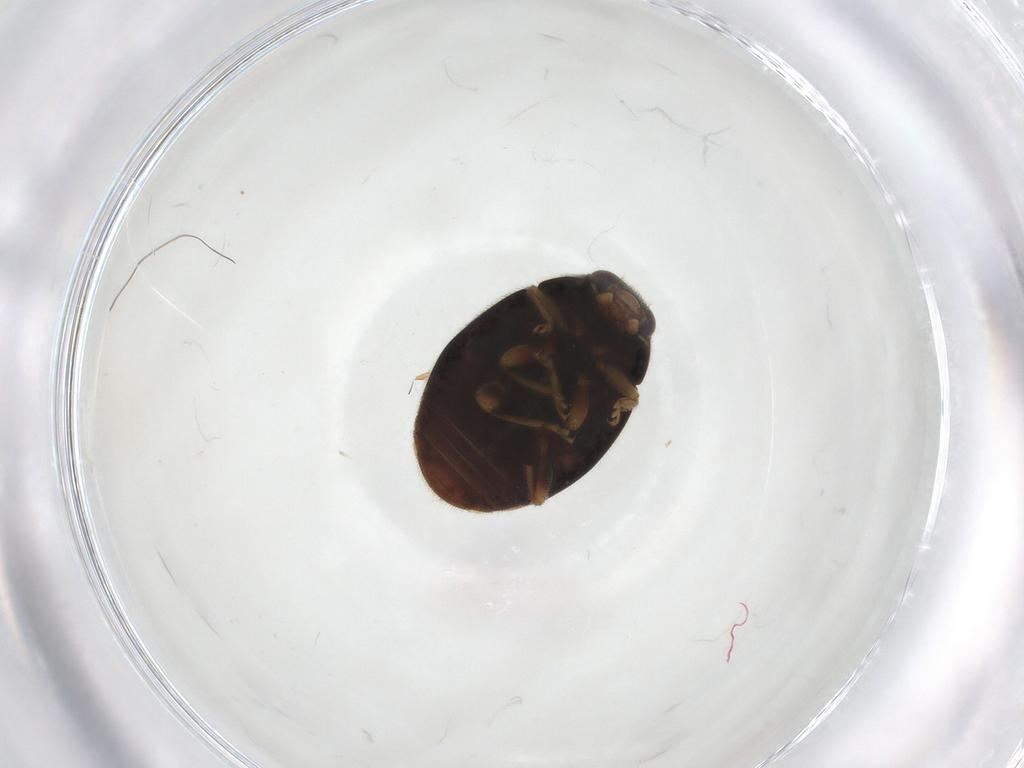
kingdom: Animalia
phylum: Arthropoda
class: Insecta
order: Coleoptera
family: Coccinellidae
